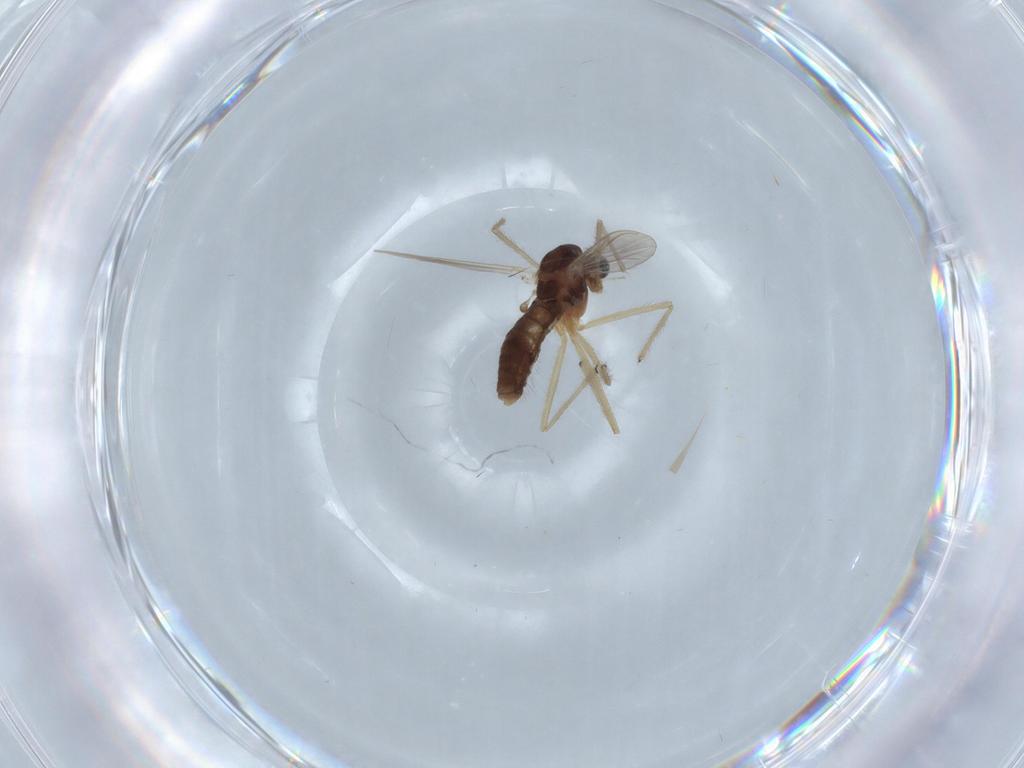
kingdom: Animalia
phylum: Arthropoda
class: Insecta
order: Diptera
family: Chironomidae
